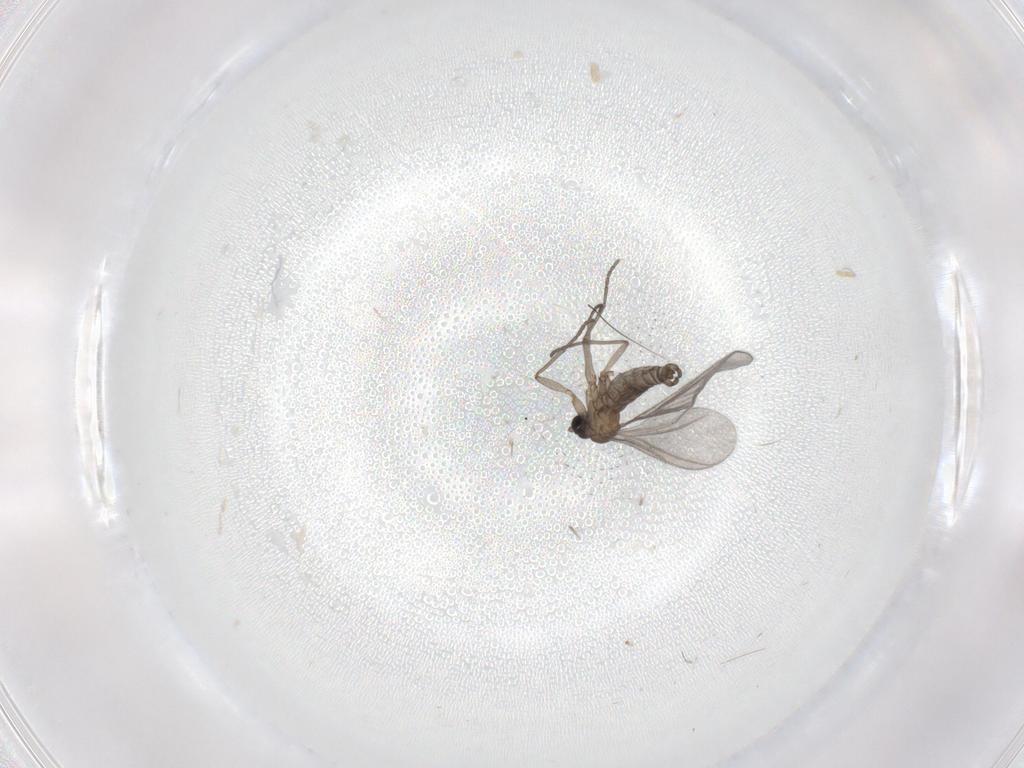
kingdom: Animalia
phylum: Arthropoda
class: Insecta
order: Diptera
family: Sciaridae
